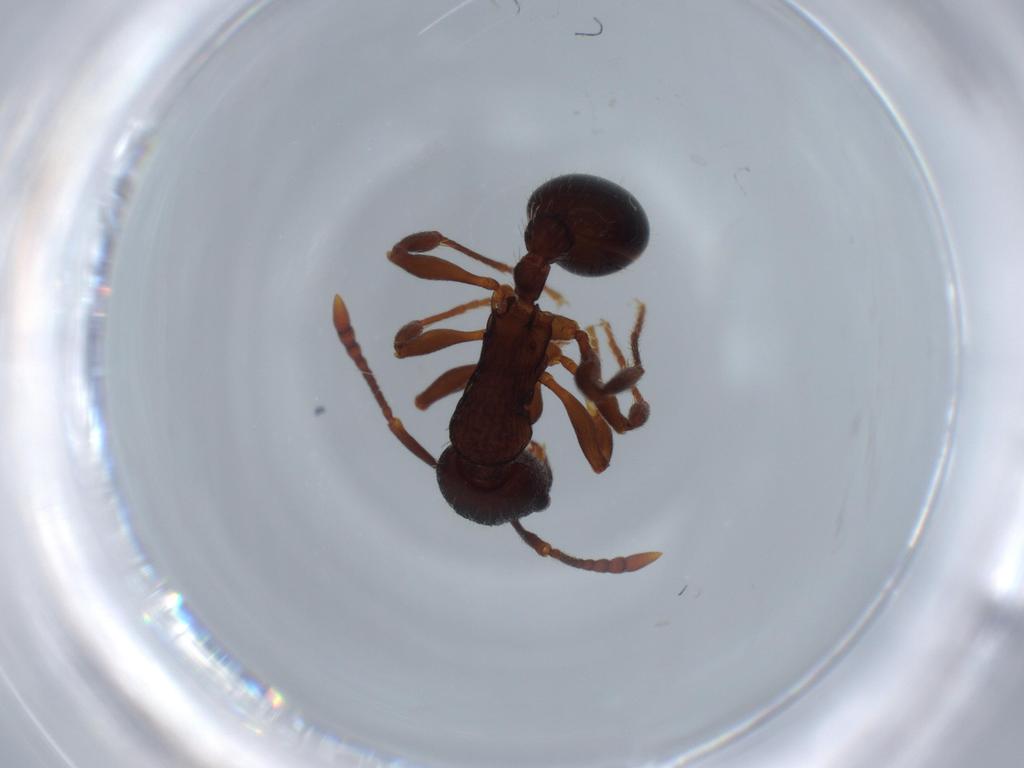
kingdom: Animalia
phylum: Arthropoda
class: Insecta
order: Hymenoptera
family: Formicidae
